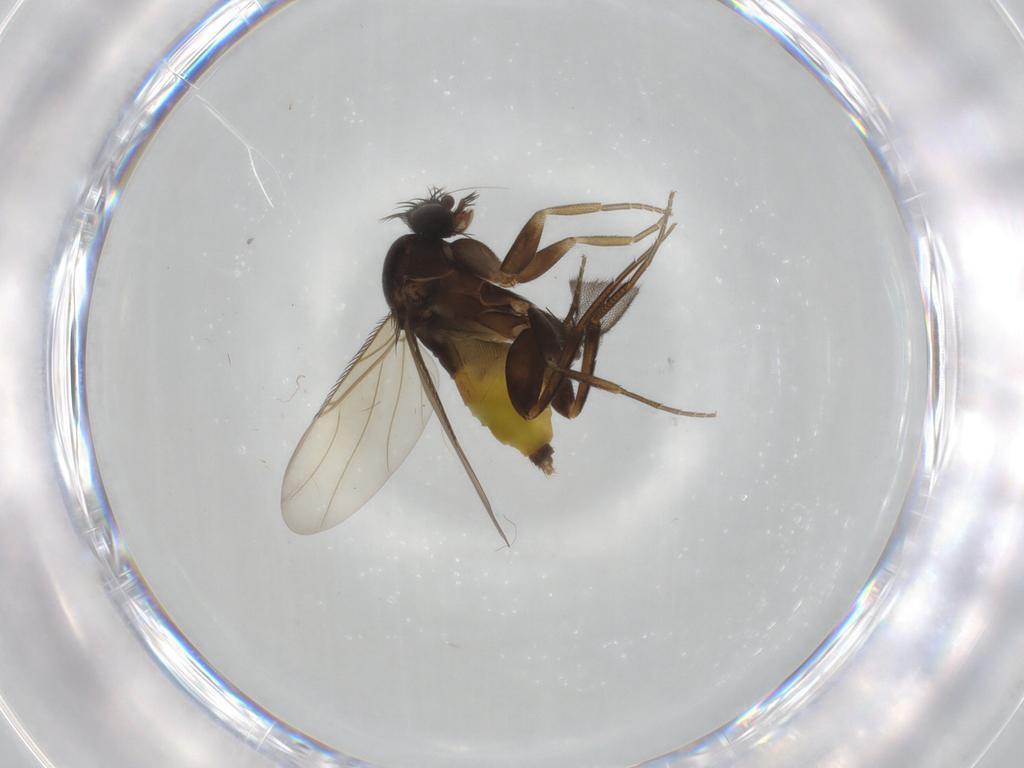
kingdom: Animalia
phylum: Arthropoda
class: Insecta
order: Diptera
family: Phoridae
